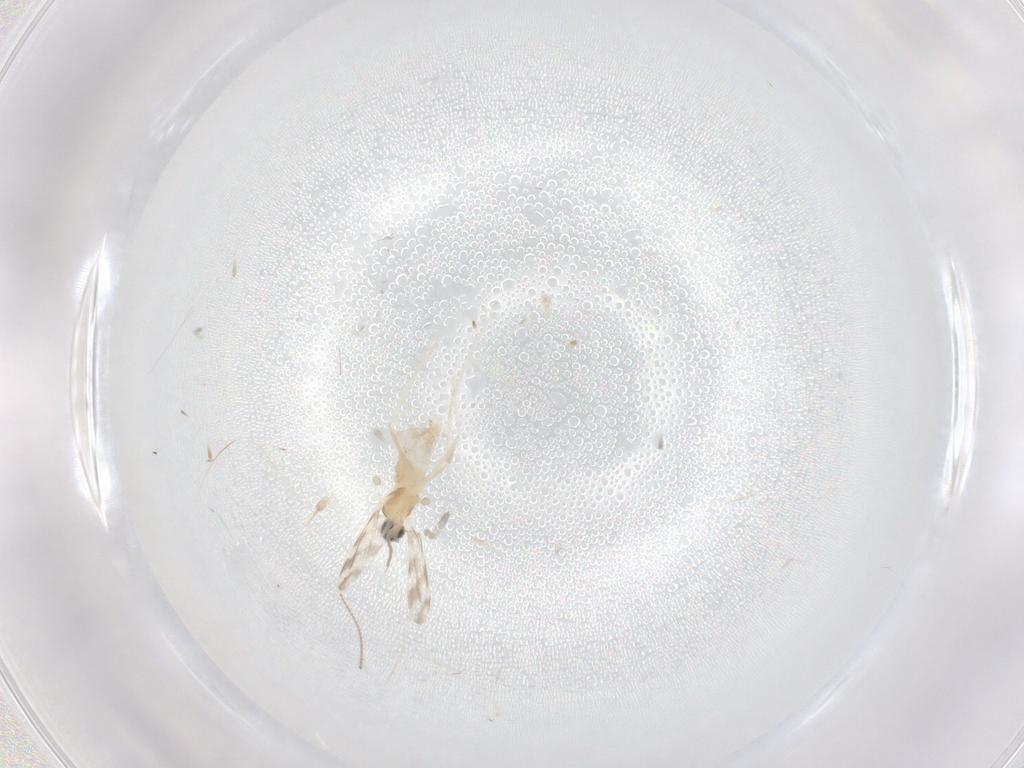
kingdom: Animalia
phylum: Arthropoda
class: Insecta
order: Diptera
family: Cecidomyiidae
